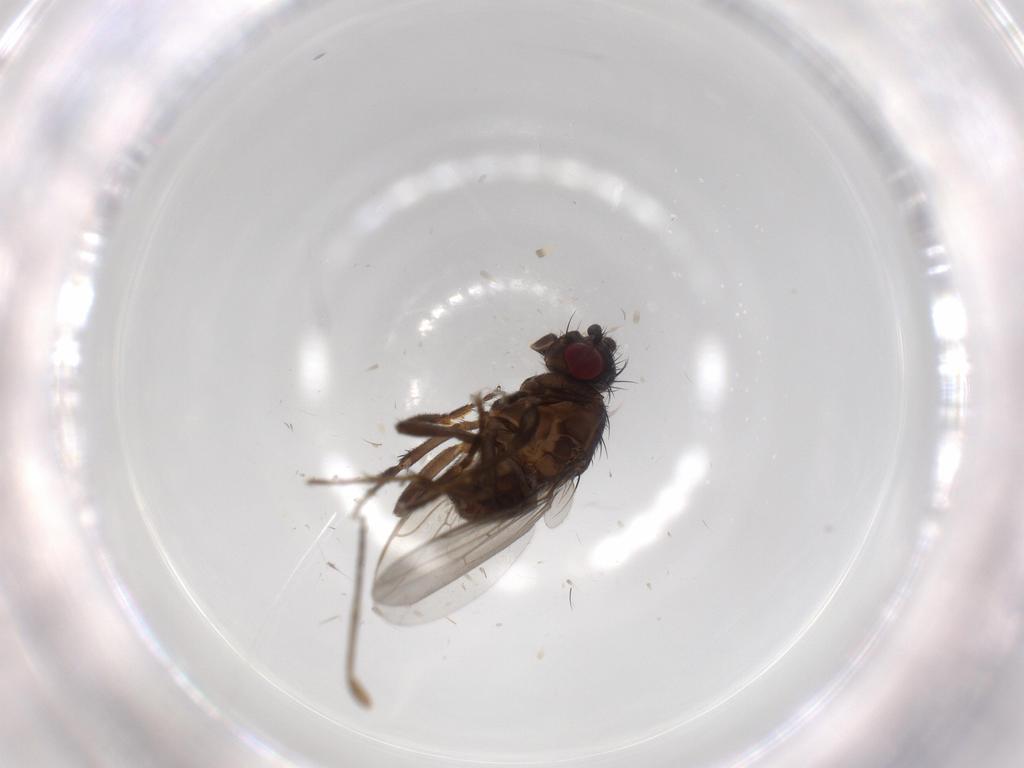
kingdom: Animalia
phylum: Arthropoda
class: Insecta
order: Diptera
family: Sciaridae
